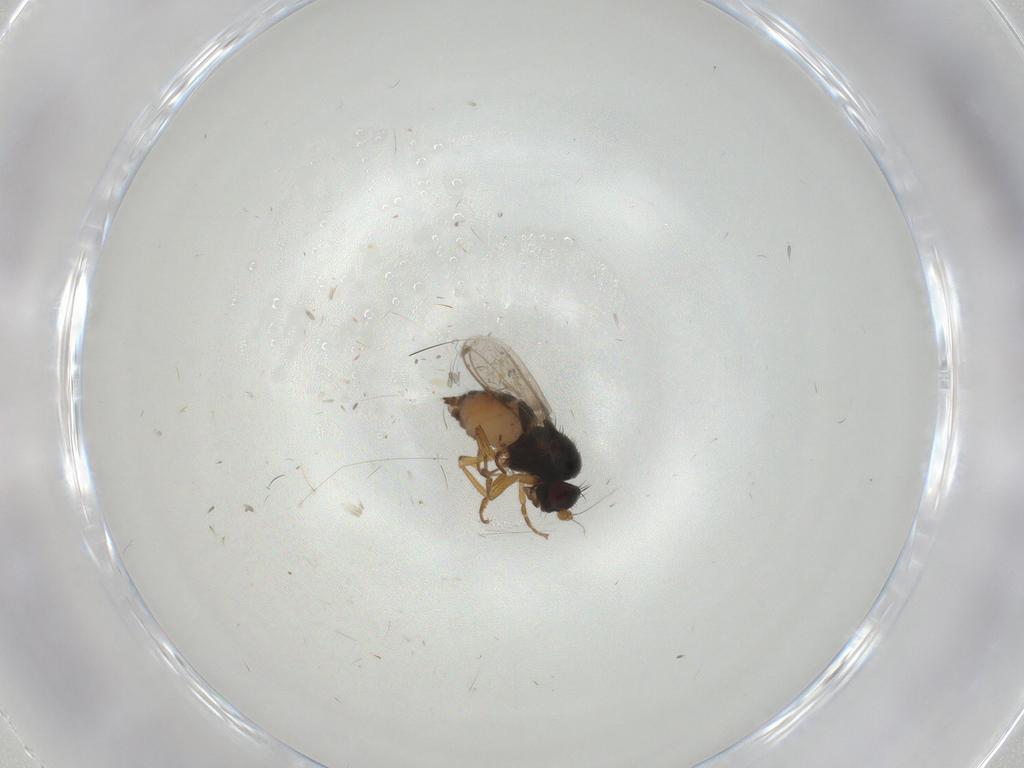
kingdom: Animalia
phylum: Arthropoda
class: Insecta
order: Diptera
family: Sphaeroceridae
